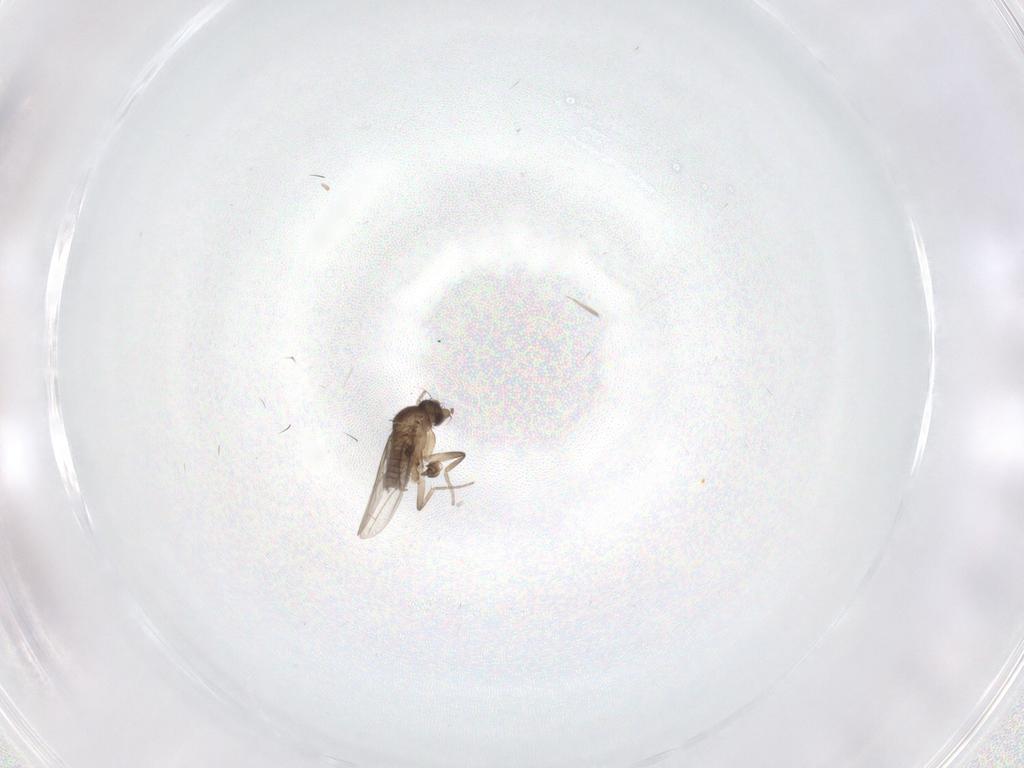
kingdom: Animalia
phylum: Arthropoda
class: Insecta
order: Diptera
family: Phoridae
